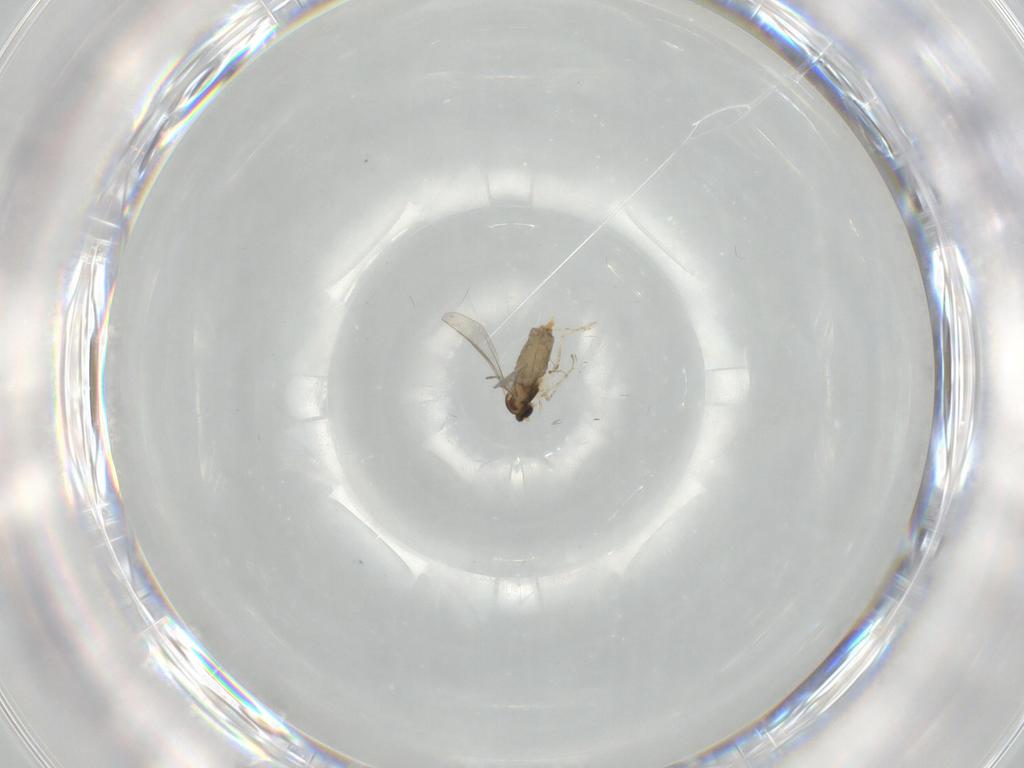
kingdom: Animalia
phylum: Arthropoda
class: Insecta
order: Diptera
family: Cecidomyiidae
